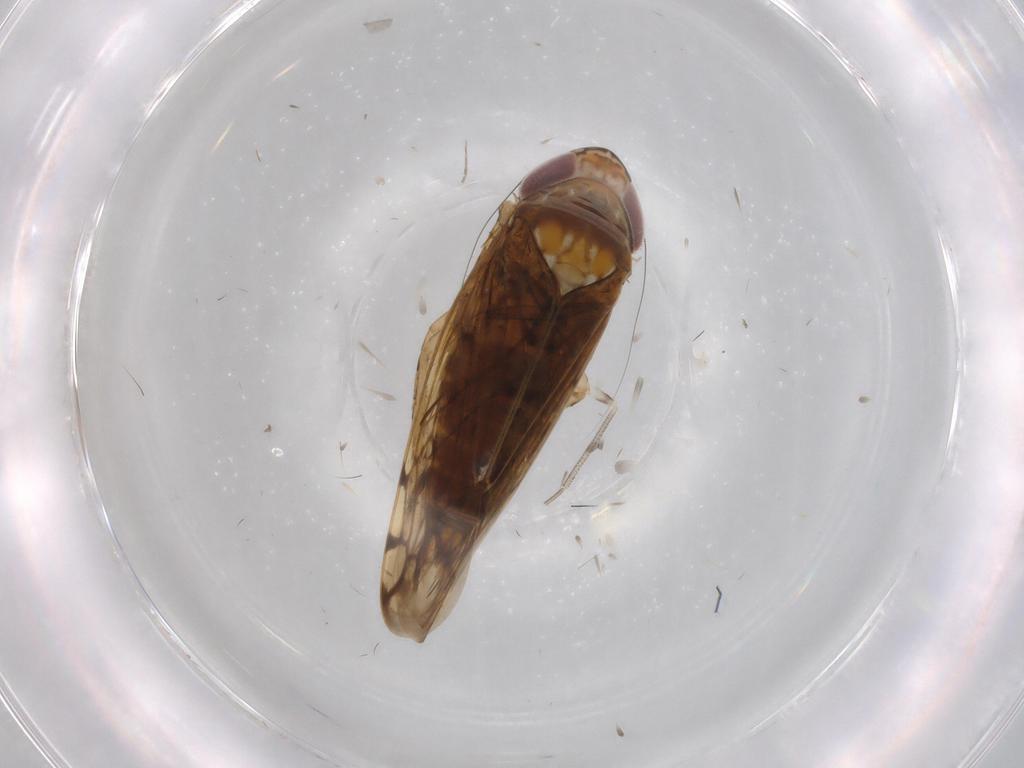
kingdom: Animalia
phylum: Arthropoda
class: Insecta
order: Hemiptera
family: Cicadellidae
